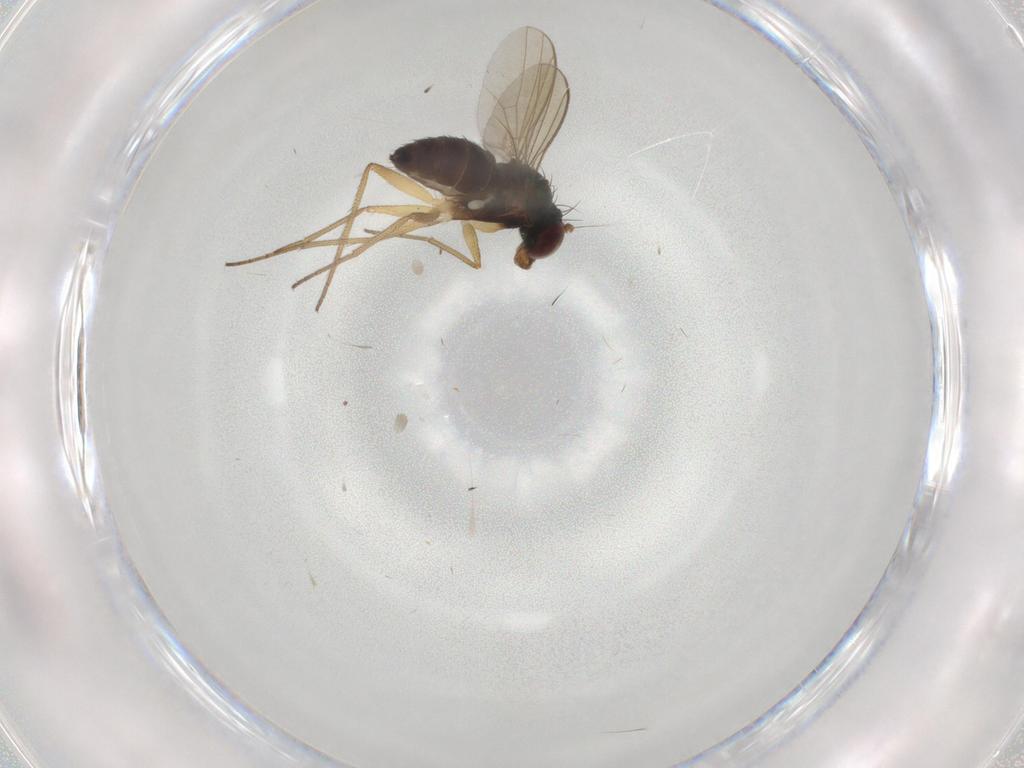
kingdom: Animalia
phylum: Arthropoda
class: Insecta
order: Diptera
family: Dolichopodidae
